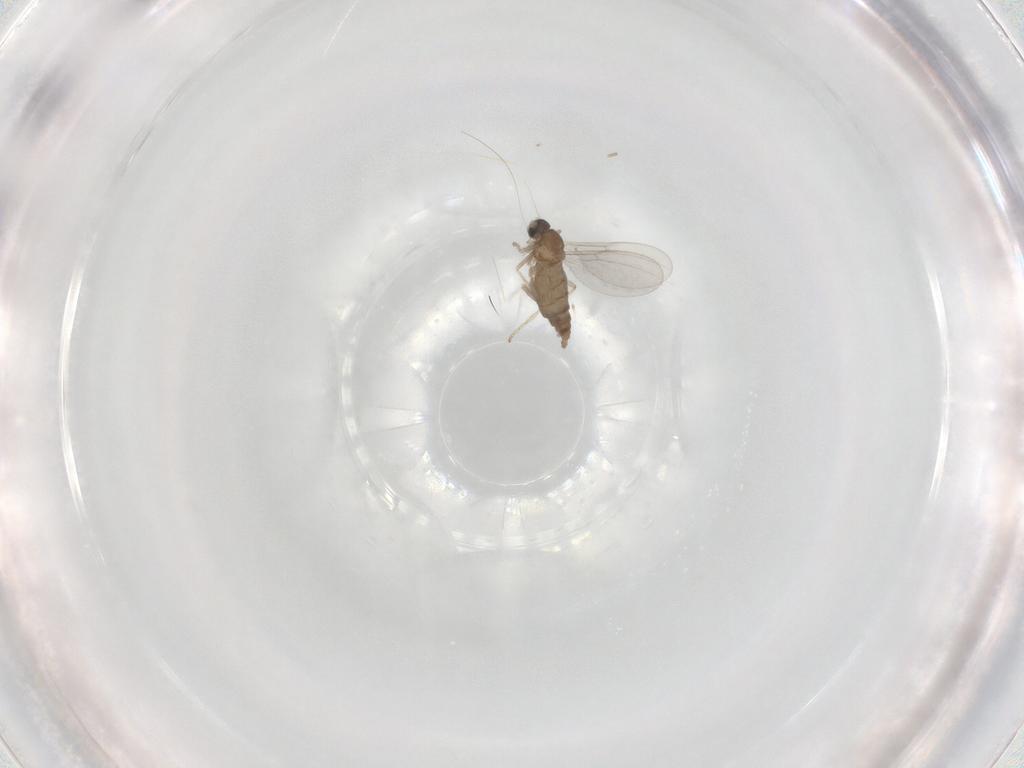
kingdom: Animalia
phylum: Arthropoda
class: Insecta
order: Diptera
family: Cecidomyiidae
